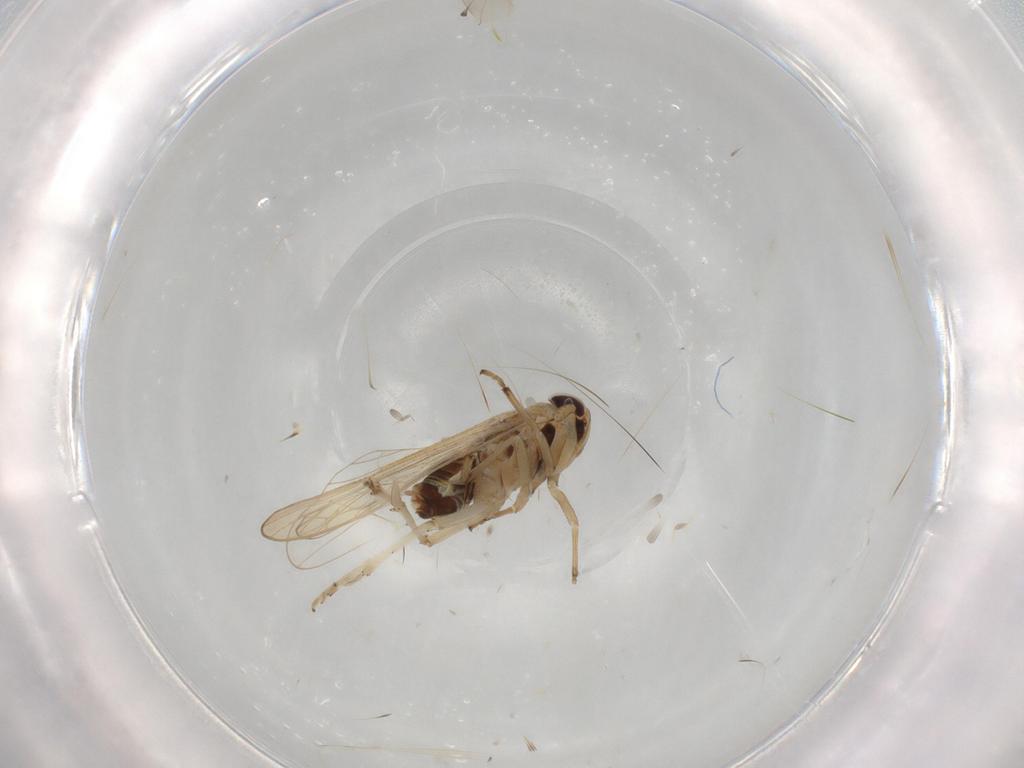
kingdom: Animalia
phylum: Arthropoda
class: Insecta
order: Hemiptera
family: Delphacidae
